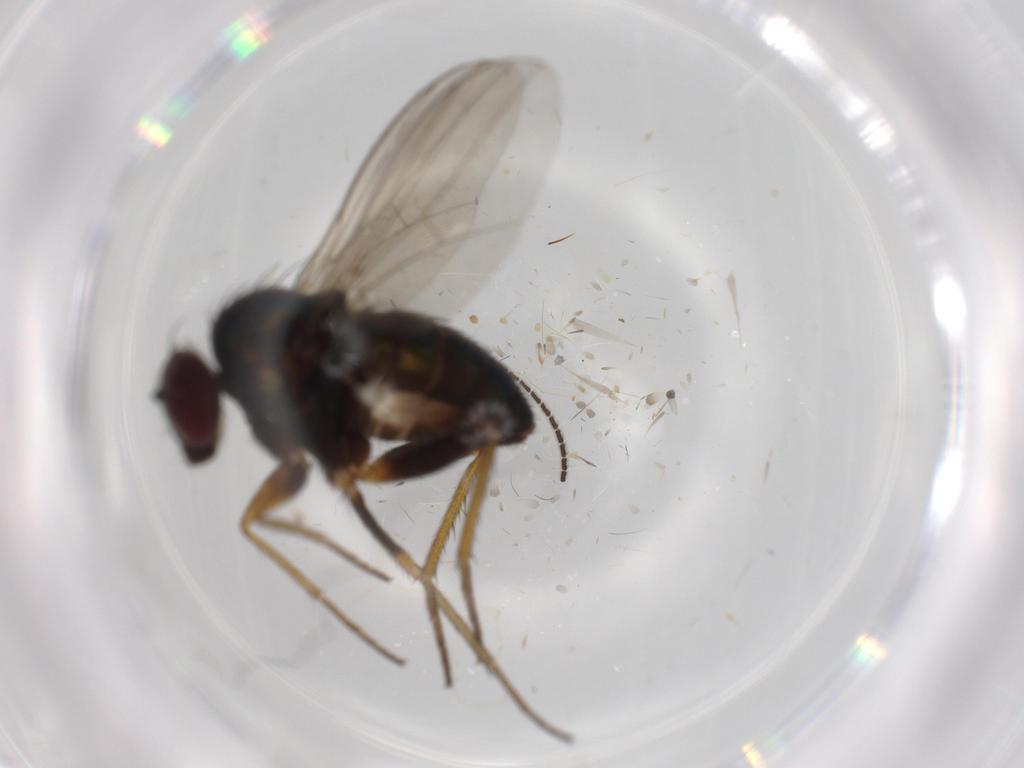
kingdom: Animalia
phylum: Arthropoda
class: Insecta
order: Diptera
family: Sciaridae
